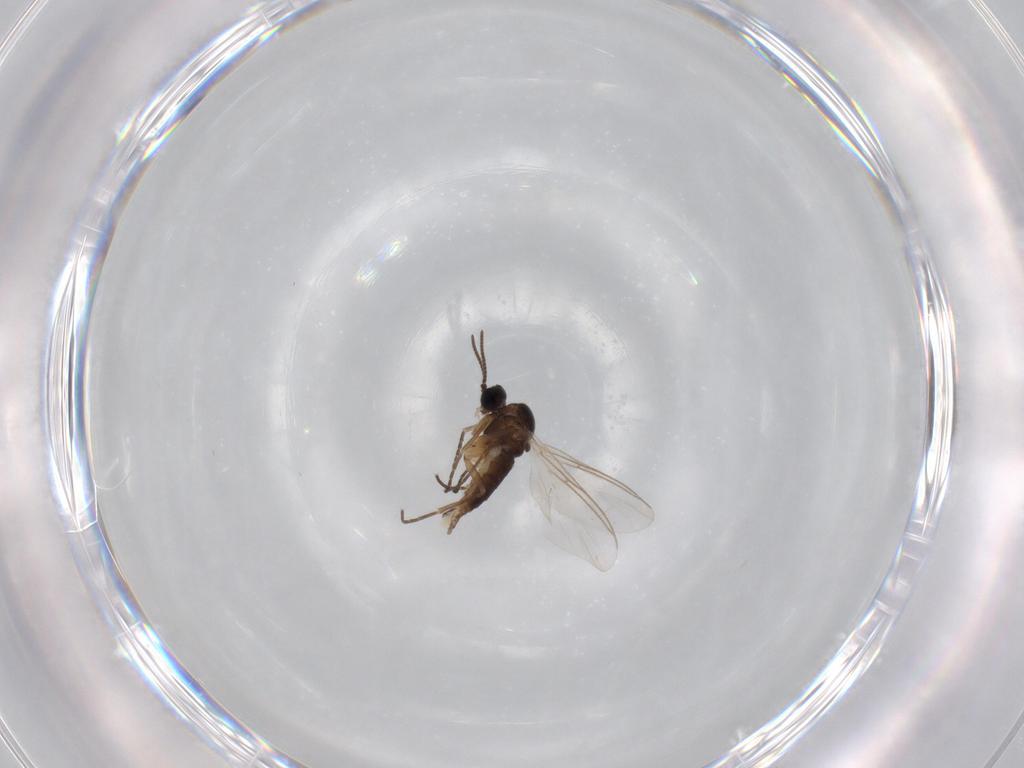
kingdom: Animalia
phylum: Arthropoda
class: Insecta
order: Diptera
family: Sciaridae
